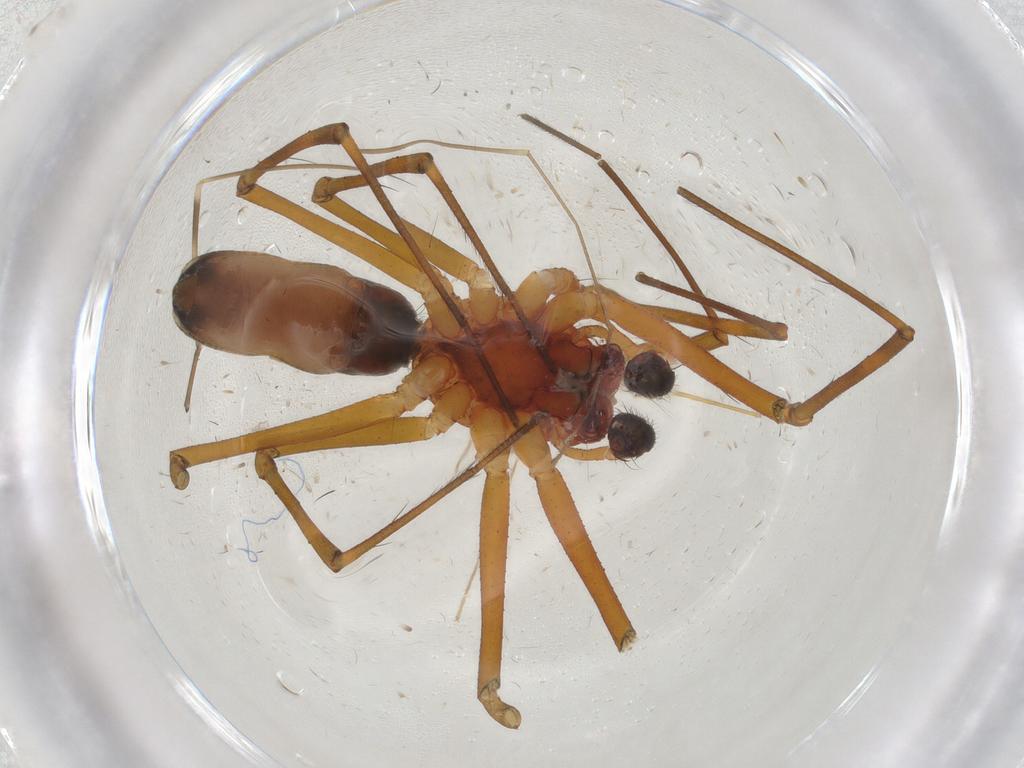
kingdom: Animalia
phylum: Arthropoda
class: Arachnida
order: Araneae
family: Linyphiidae
